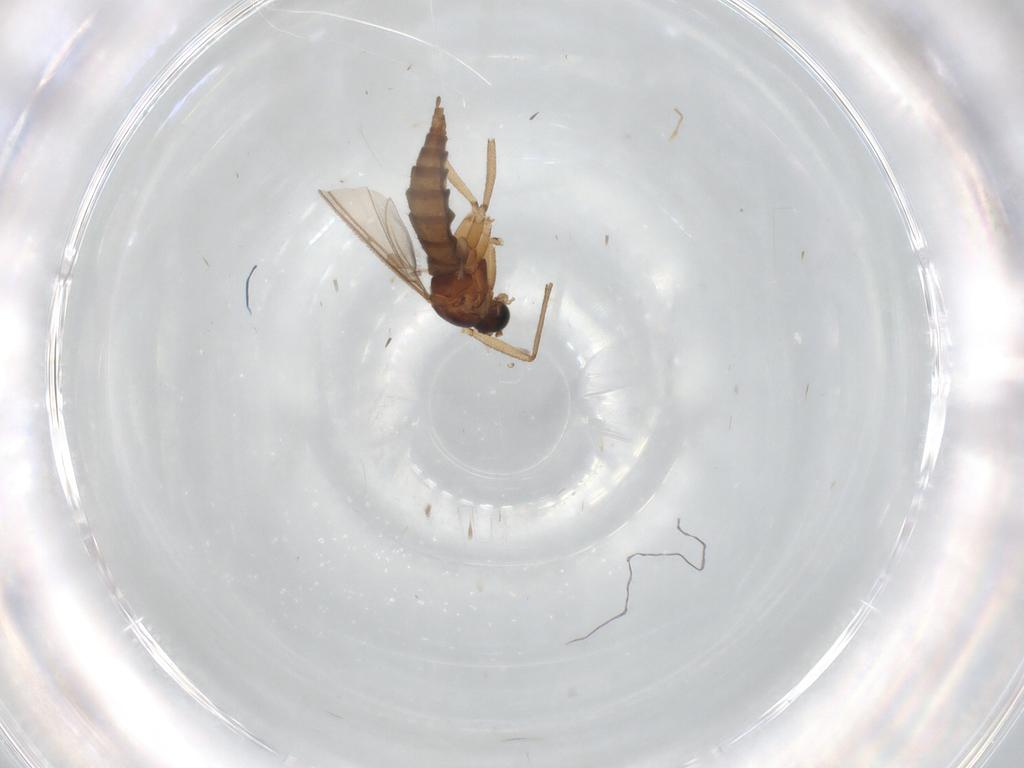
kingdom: Animalia
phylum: Arthropoda
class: Insecta
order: Diptera
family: Sciaridae
